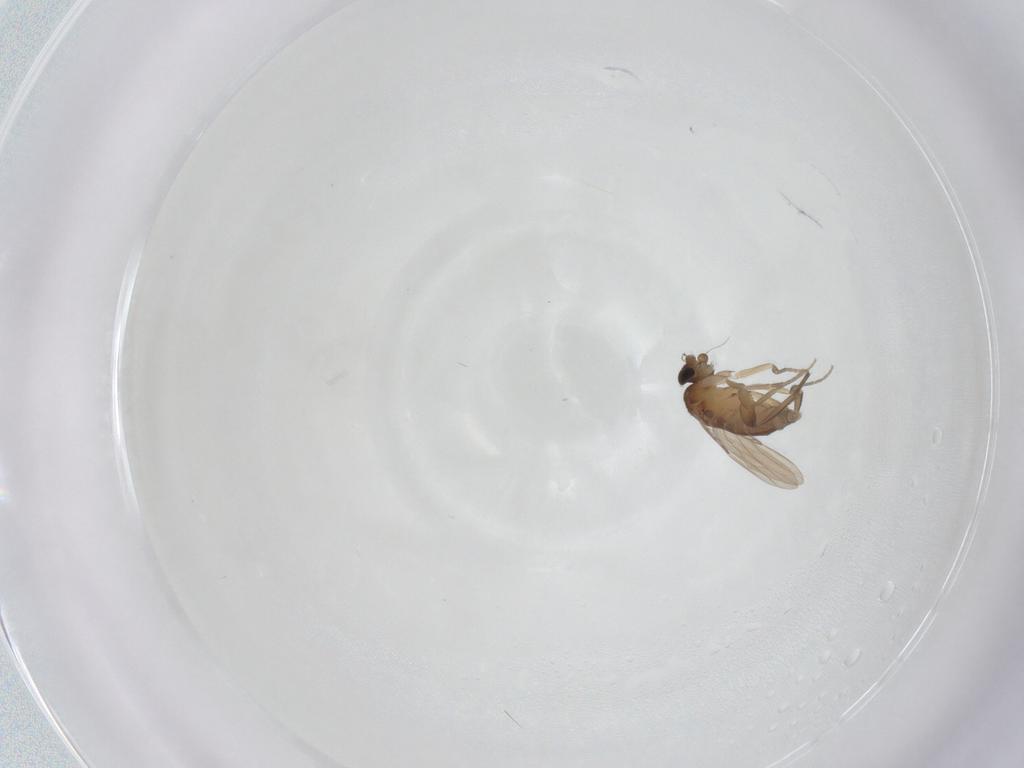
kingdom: Animalia
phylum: Arthropoda
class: Insecta
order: Diptera
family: Phoridae
